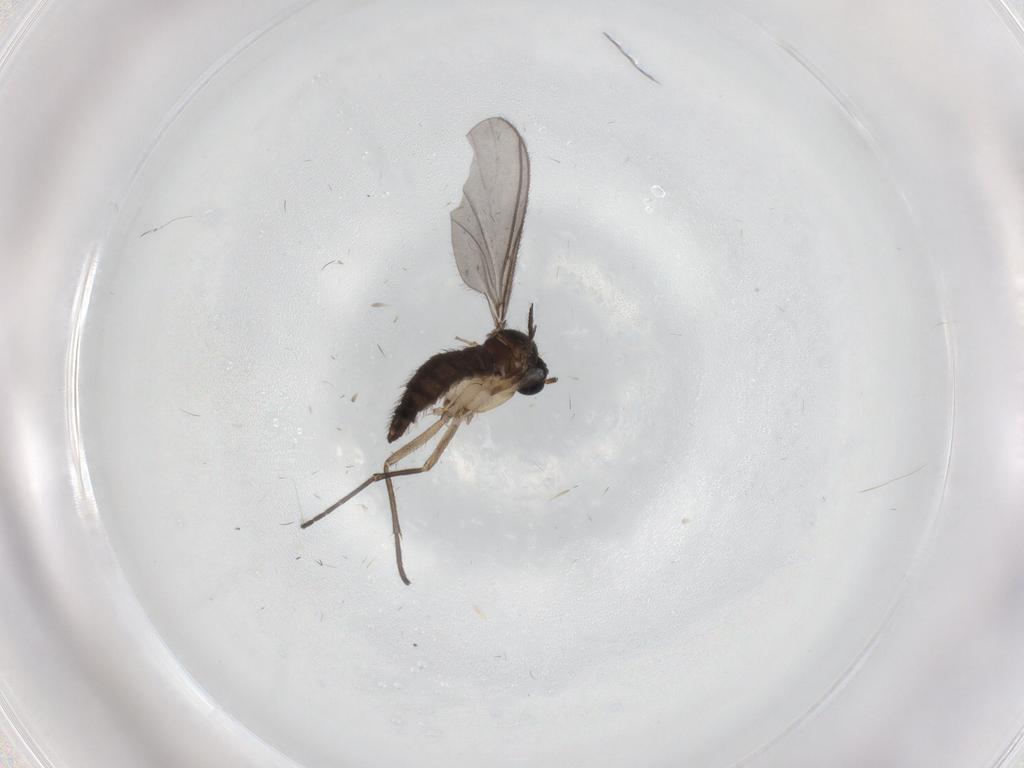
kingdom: Animalia
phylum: Arthropoda
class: Insecta
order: Diptera
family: Sciaridae
